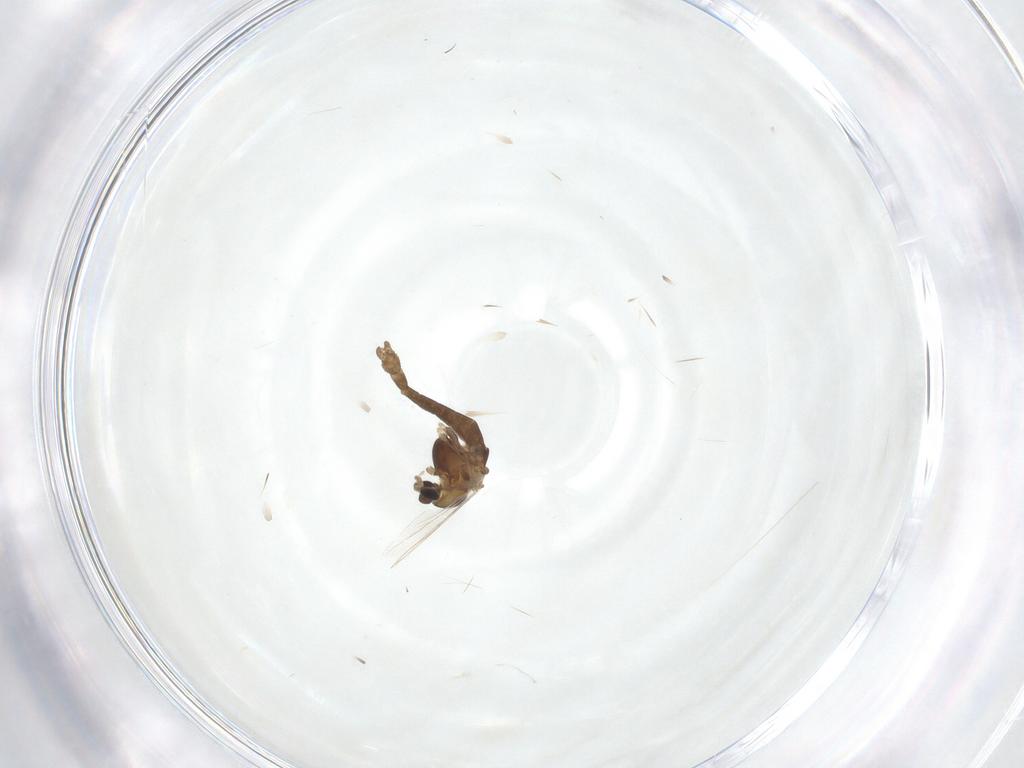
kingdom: Animalia
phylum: Arthropoda
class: Insecta
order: Diptera
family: Chironomidae
